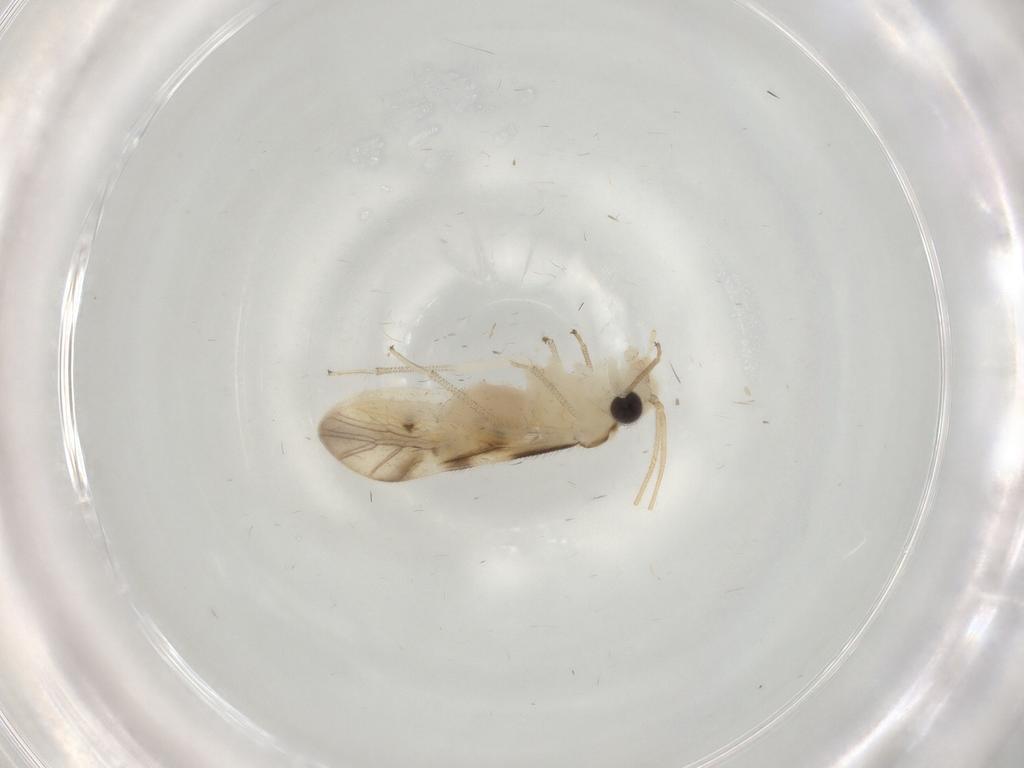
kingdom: Animalia
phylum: Arthropoda
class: Insecta
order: Psocodea
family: Caeciliusidae
